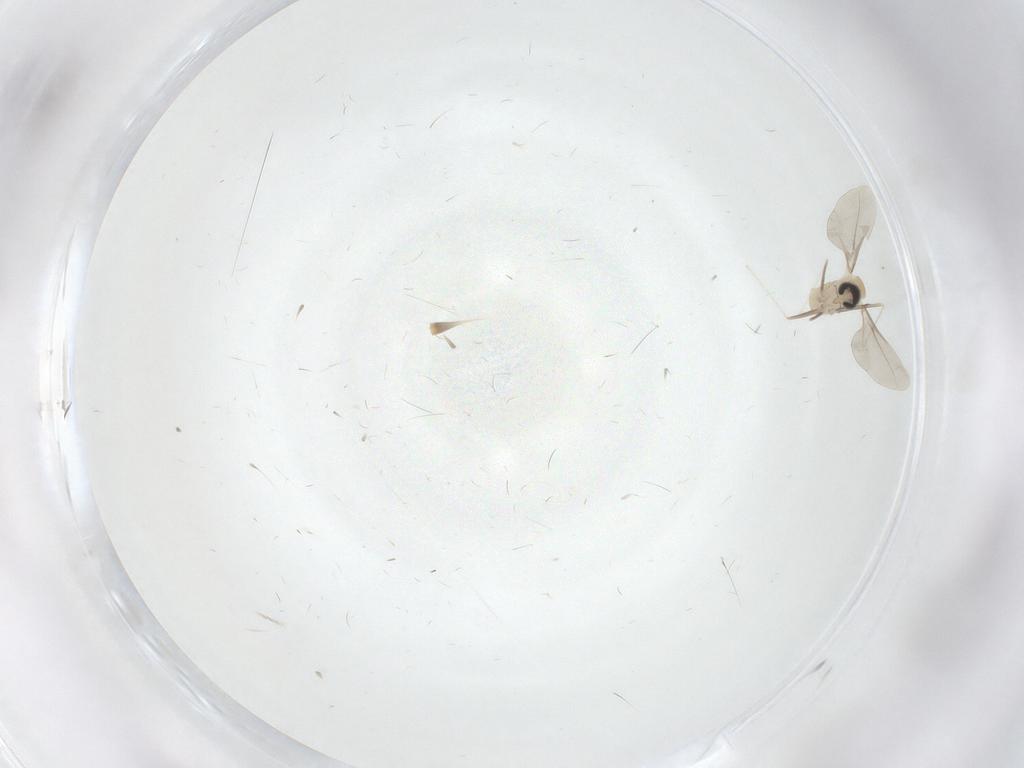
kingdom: Animalia
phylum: Arthropoda
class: Insecta
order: Diptera
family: Cecidomyiidae
